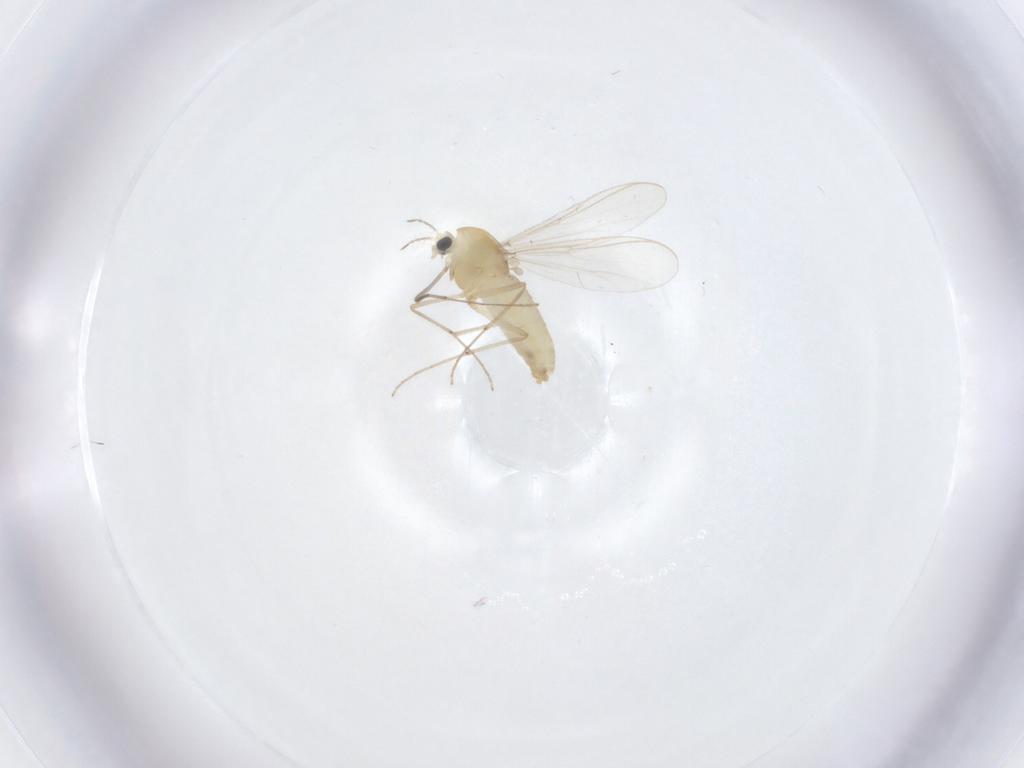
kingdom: Animalia
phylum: Arthropoda
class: Insecta
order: Diptera
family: Chironomidae
